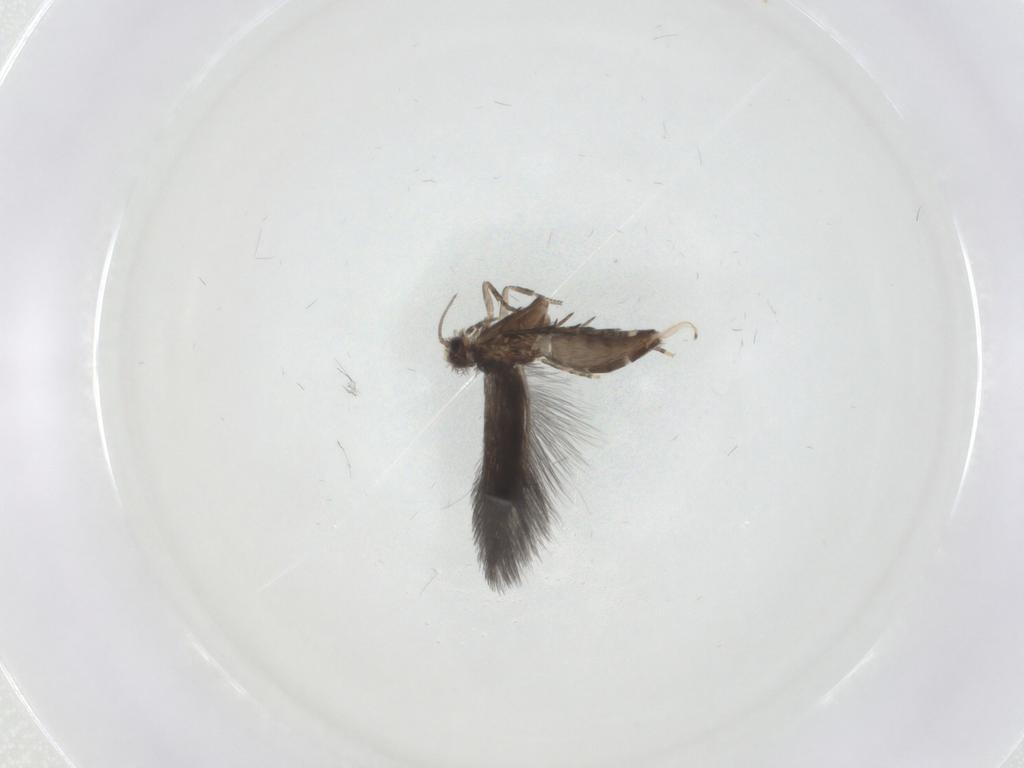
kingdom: Animalia
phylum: Arthropoda
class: Insecta
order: Trichoptera
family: Hydroptilidae
